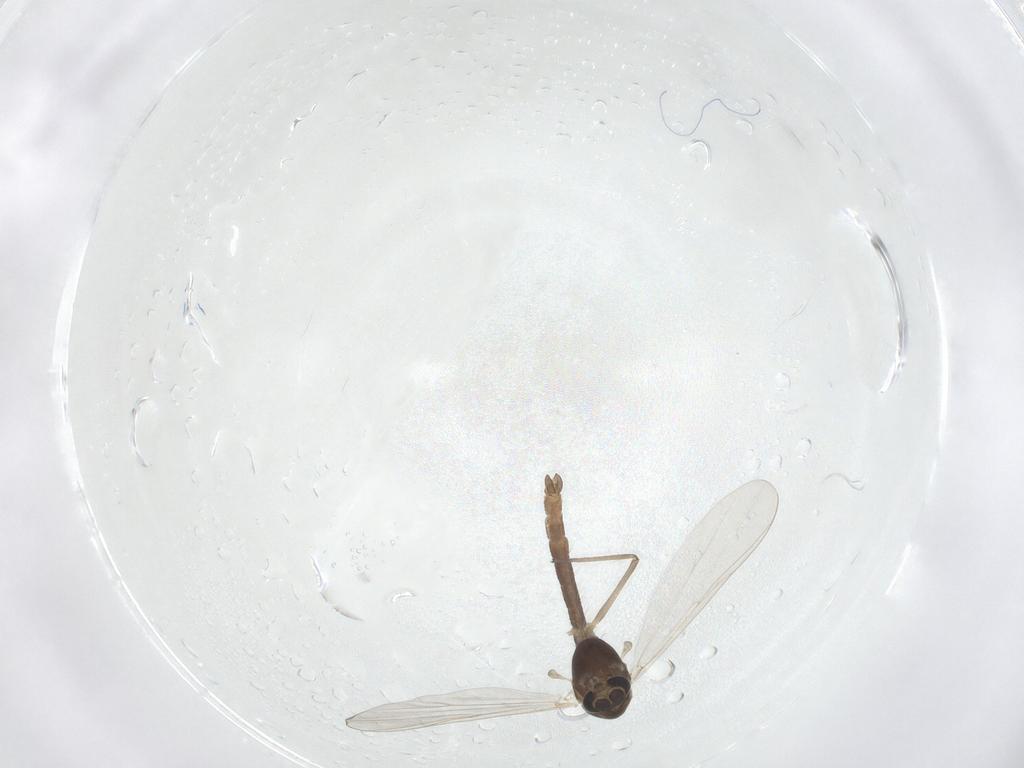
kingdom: Animalia
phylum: Arthropoda
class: Insecta
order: Diptera
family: Chironomidae
